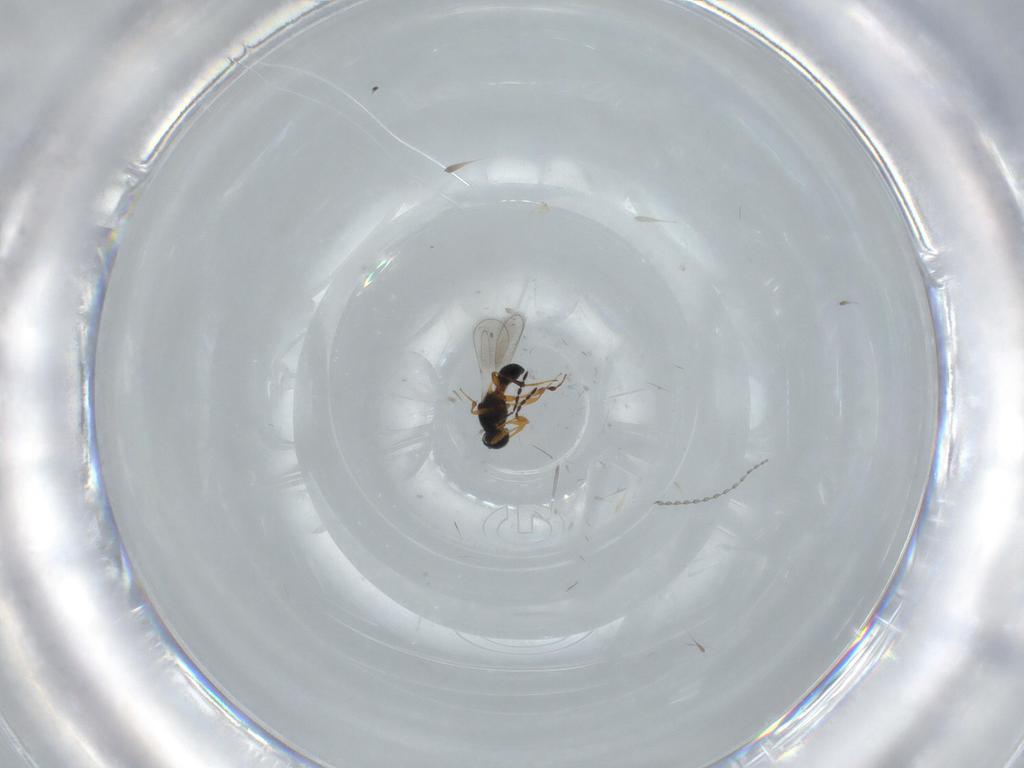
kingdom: Animalia
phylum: Arthropoda
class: Insecta
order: Hymenoptera
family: Platygastridae
